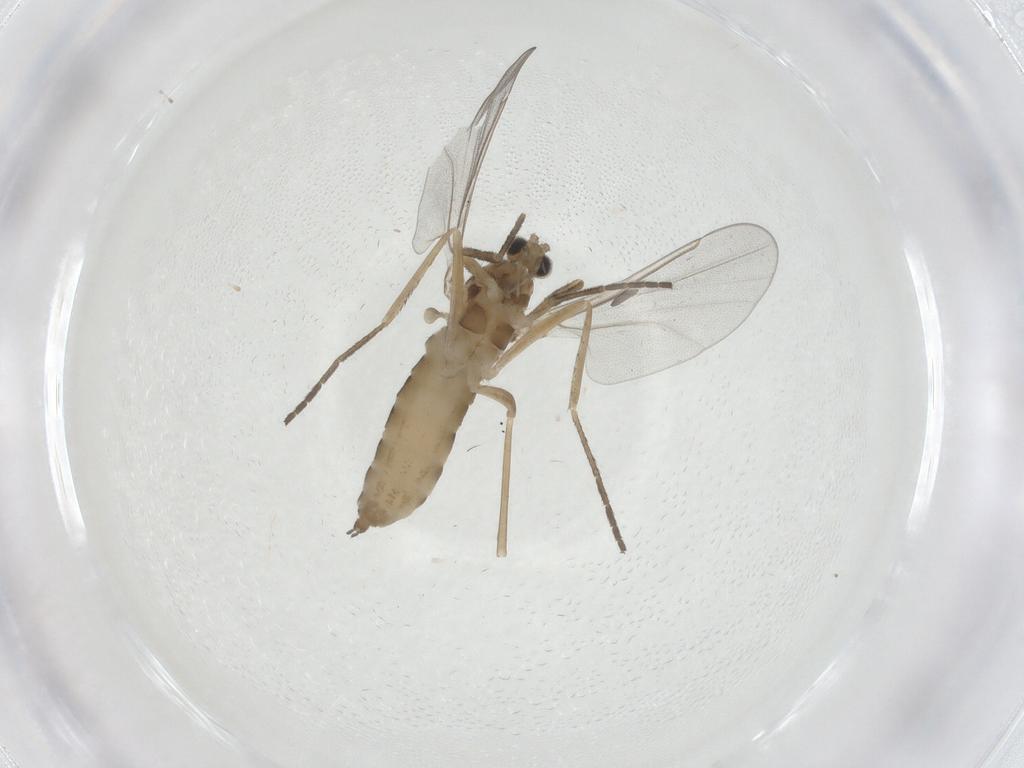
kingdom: Animalia
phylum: Arthropoda
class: Insecta
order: Diptera
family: Cecidomyiidae
